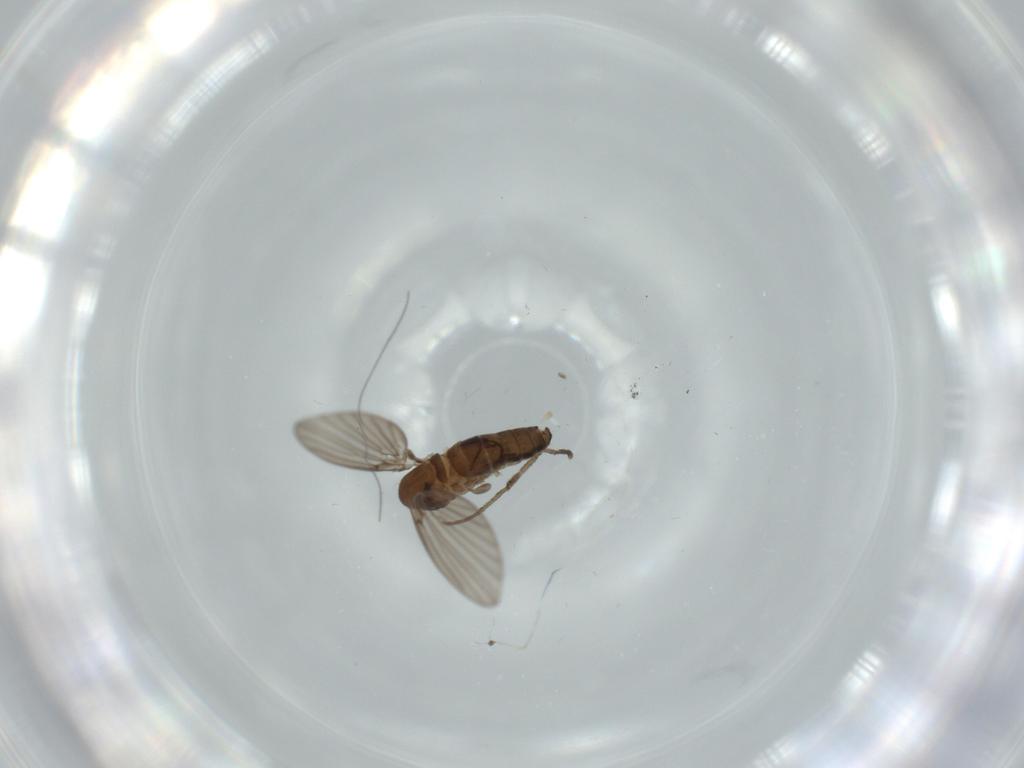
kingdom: Animalia
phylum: Arthropoda
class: Insecta
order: Diptera
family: Psychodidae
